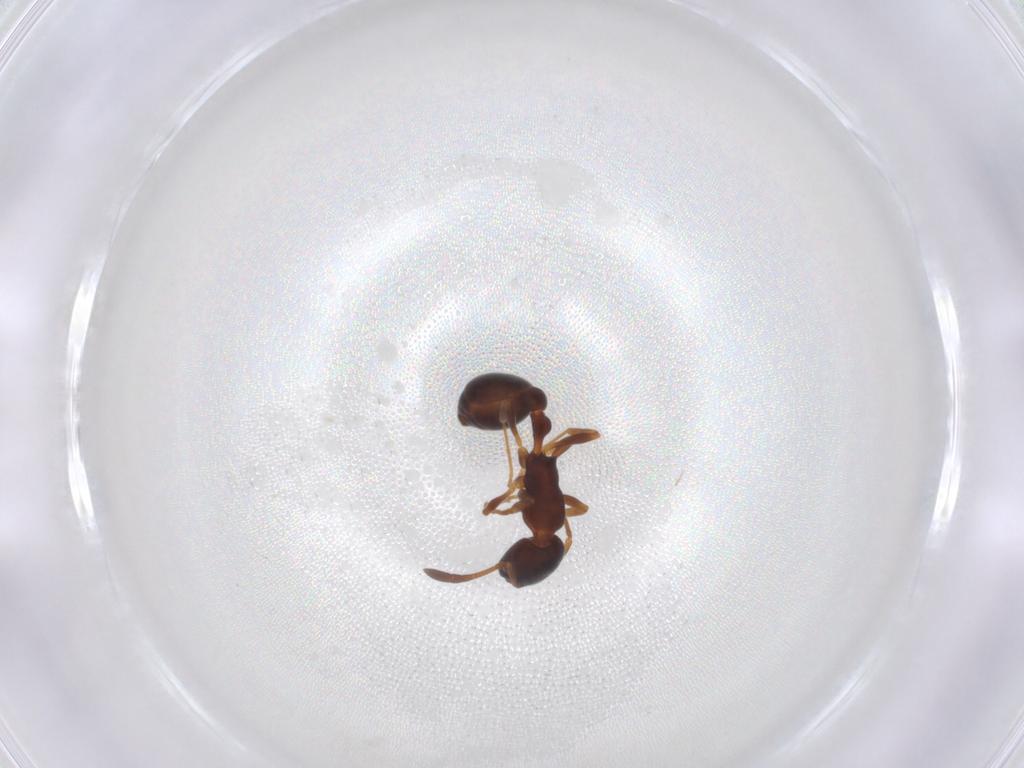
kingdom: Animalia
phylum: Arthropoda
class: Insecta
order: Hymenoptera
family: Formicidae
